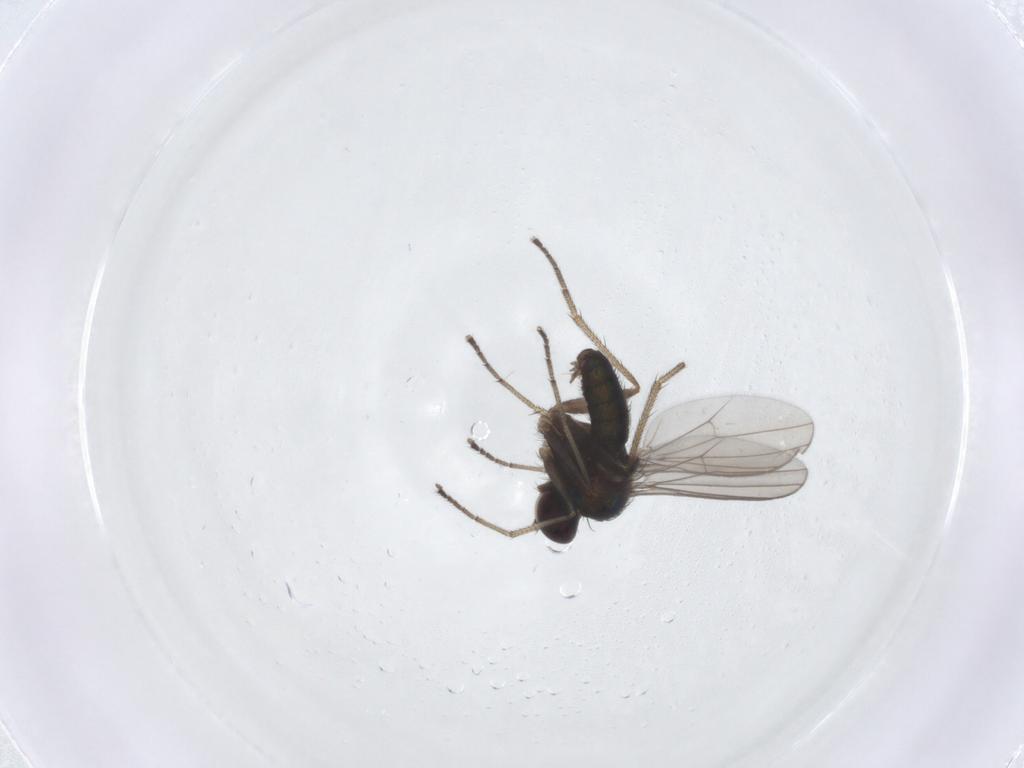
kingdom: Animalia
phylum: Arthropoda
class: Insecta
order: Diptera
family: Dolichopodidae
